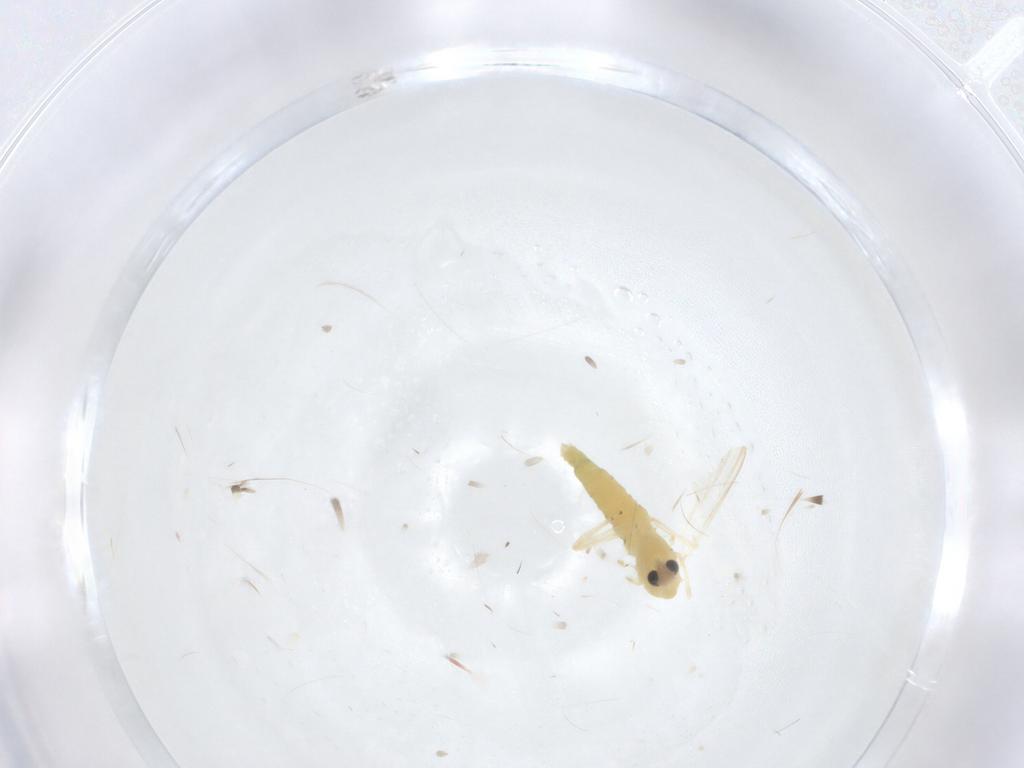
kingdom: Animalia
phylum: Arthropoda
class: Insecta
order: Diptera
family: Chironomidae
